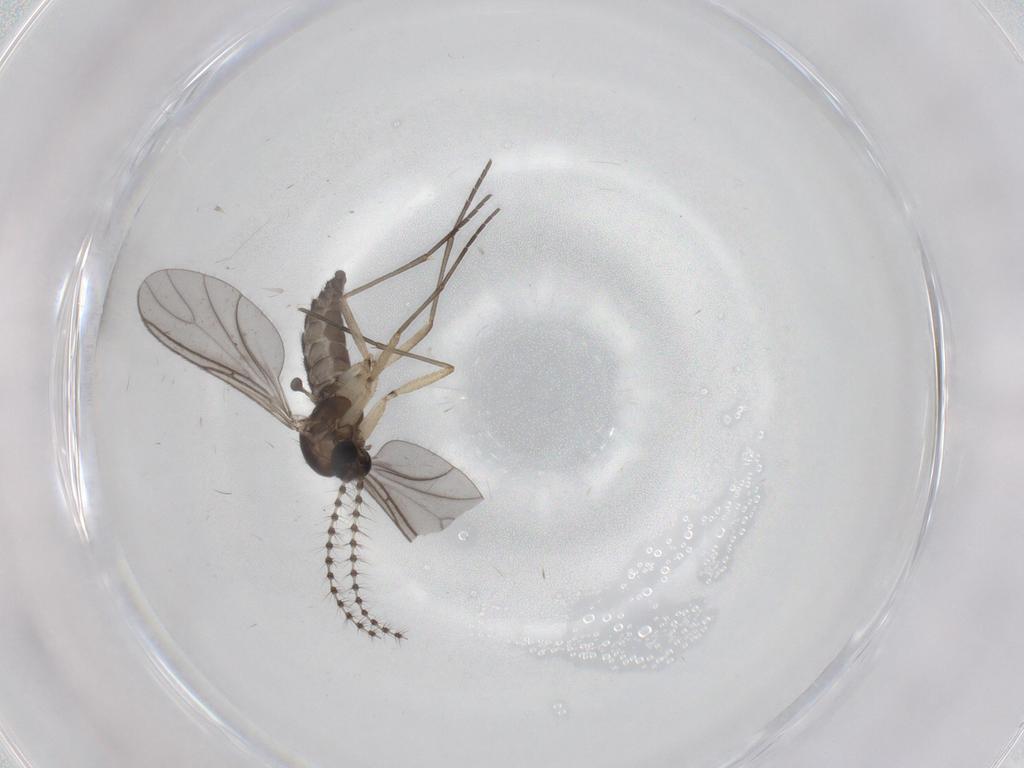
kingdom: Animalia
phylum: Arthropoda
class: Insecta
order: Diptera
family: Sciaridae
